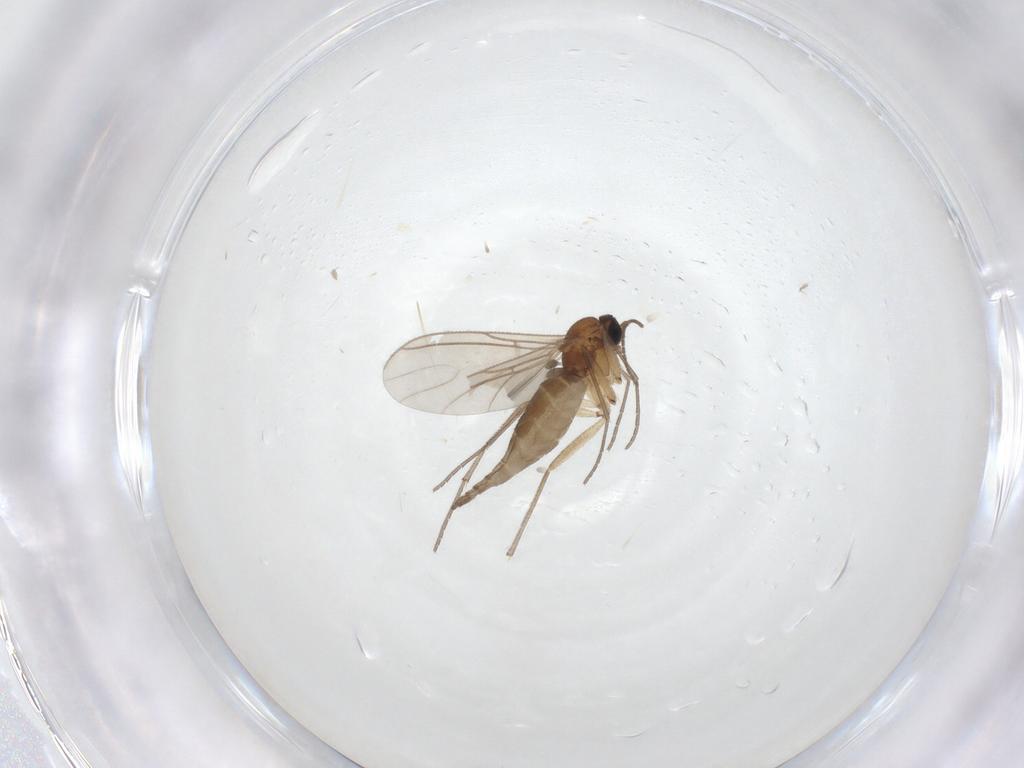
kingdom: Animalia
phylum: Arthropoda
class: Insecta
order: Diptera
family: Sciaridae
